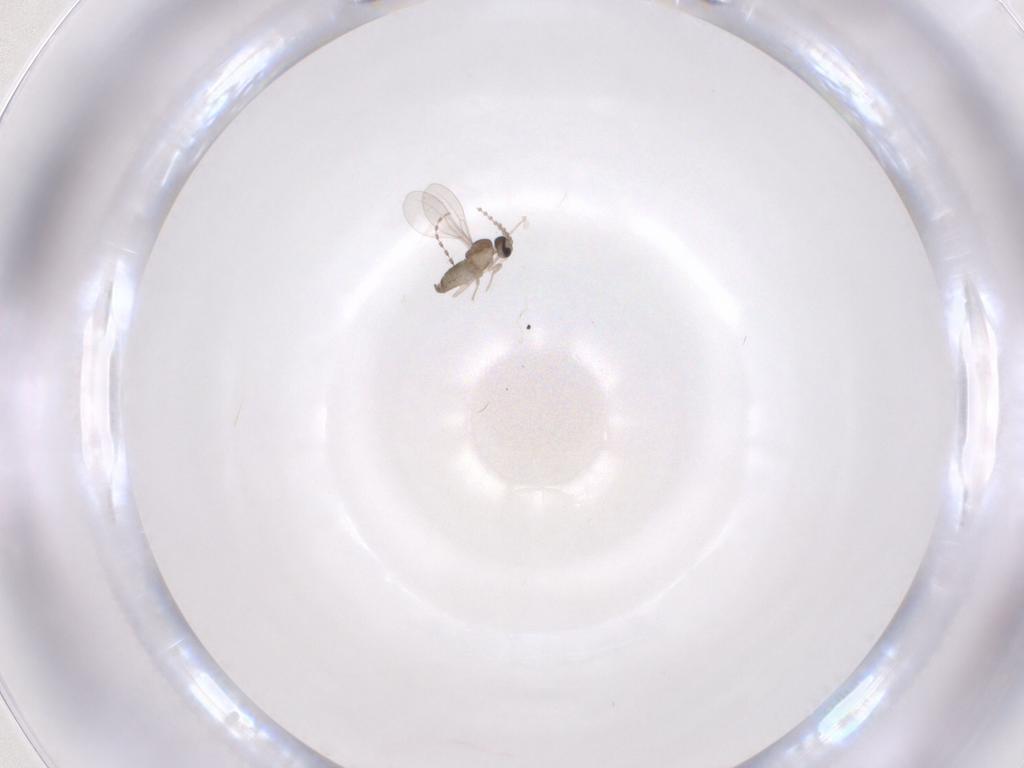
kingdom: Animalia
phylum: Arthropoda
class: Insecta
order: Diptera
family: Cecidomyiidae
